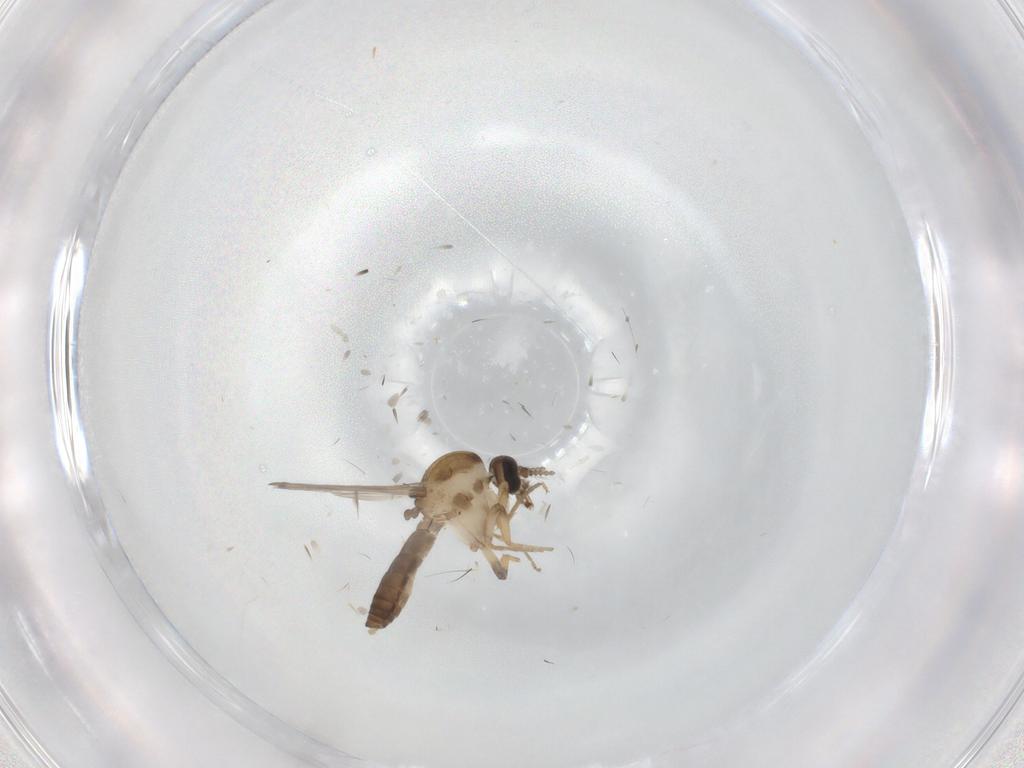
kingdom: Animalia
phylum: Arthropoda
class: Insecta
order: Diptera
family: Ceratopogonidae
